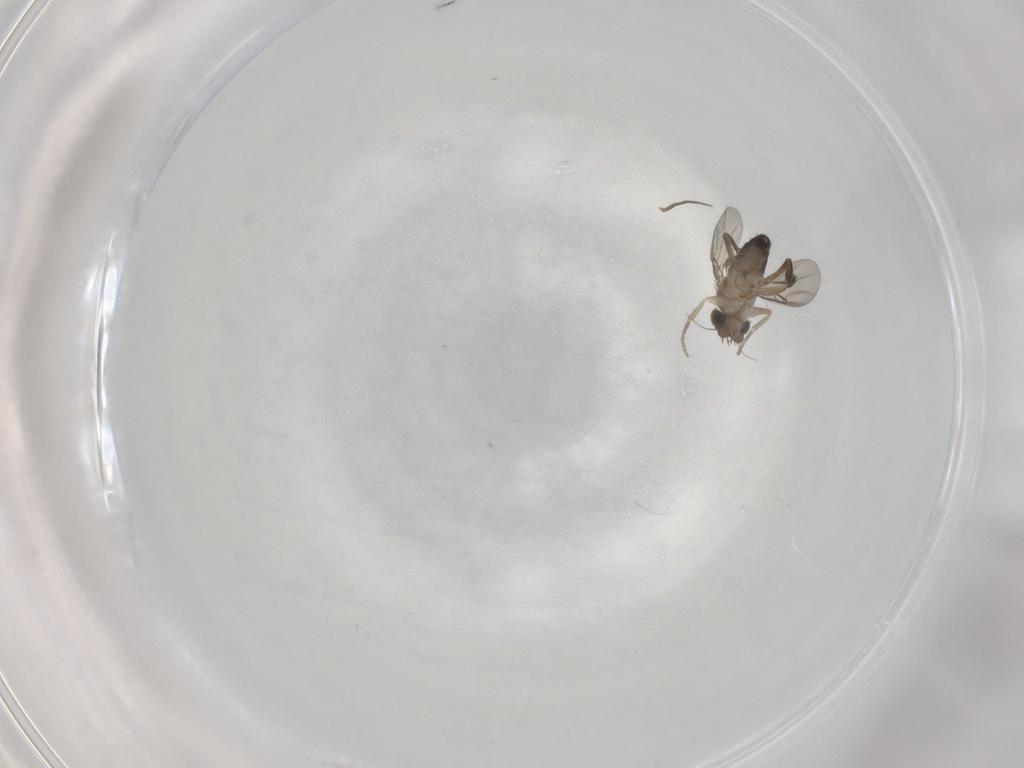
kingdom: Animalia
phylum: Arthropoda
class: Insecta
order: Diptera
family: Phoridae
